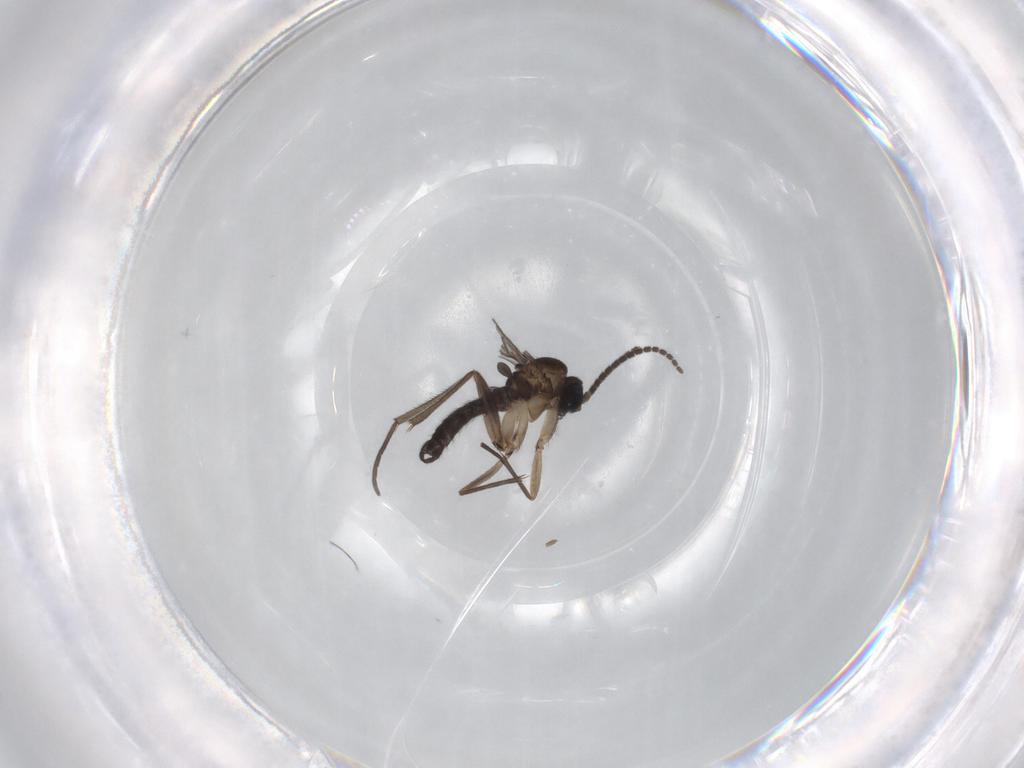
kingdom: Animalia
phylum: Arthropoda
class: Insecta
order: Diptera
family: Sciaridae
